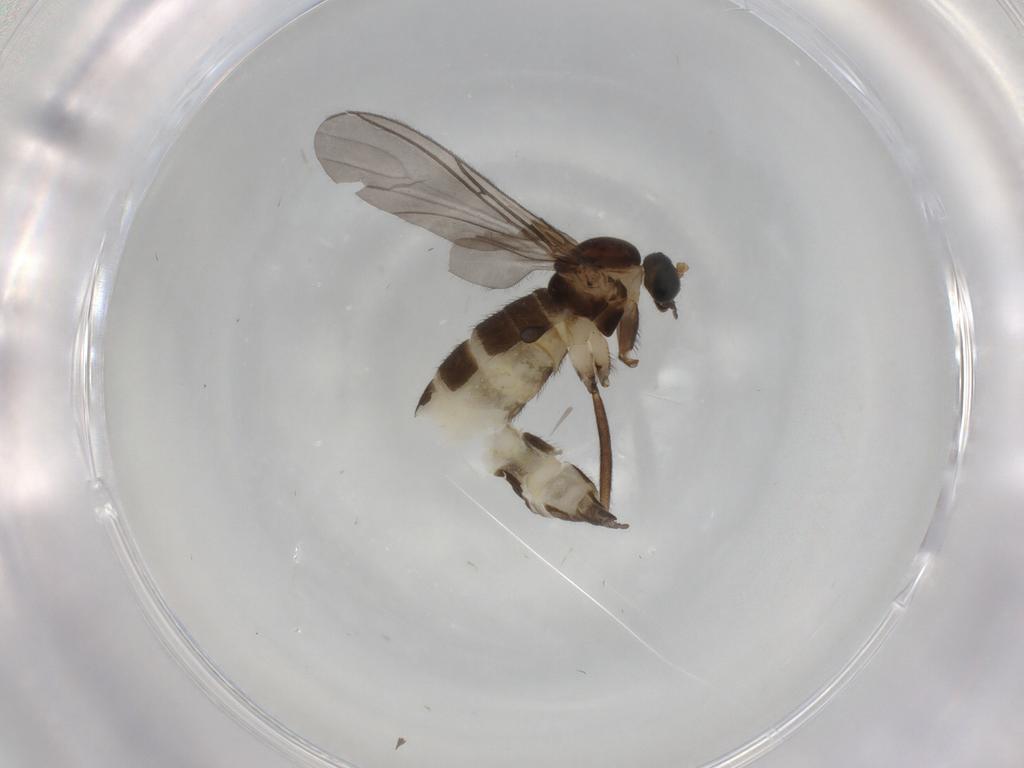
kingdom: Animalia
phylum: Arthropoda
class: Insecta
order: Diptera
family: Sciaridae
